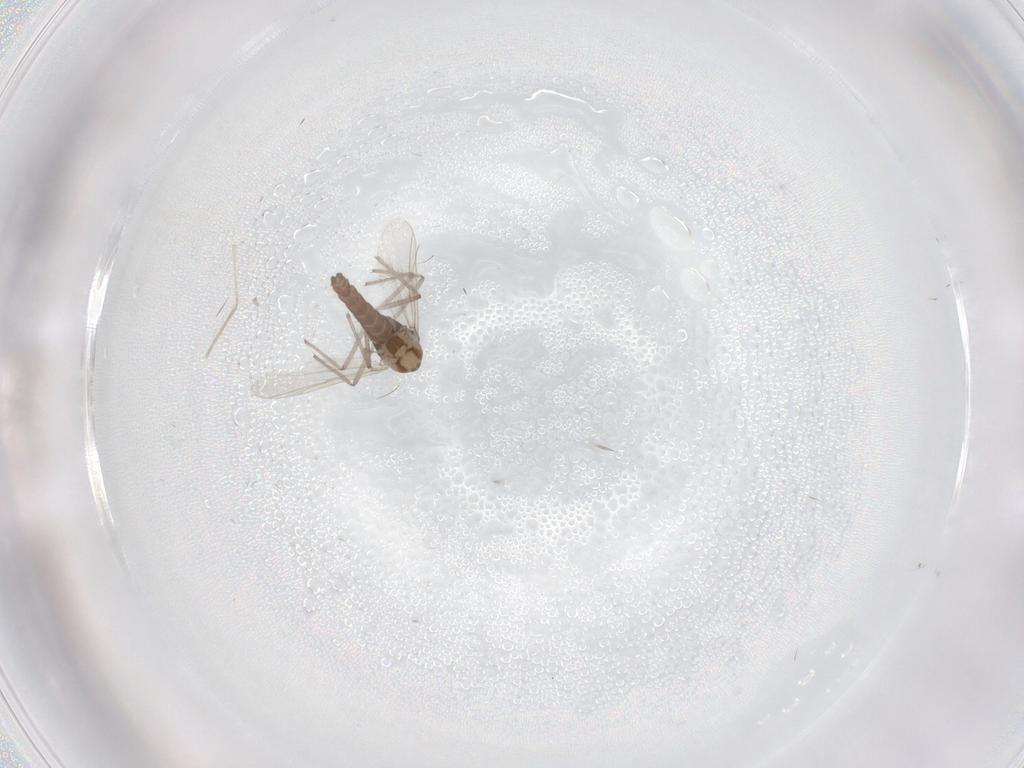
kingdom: Animalia
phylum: Arthropoda
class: Insecta
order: Diptera
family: Chironomidae
